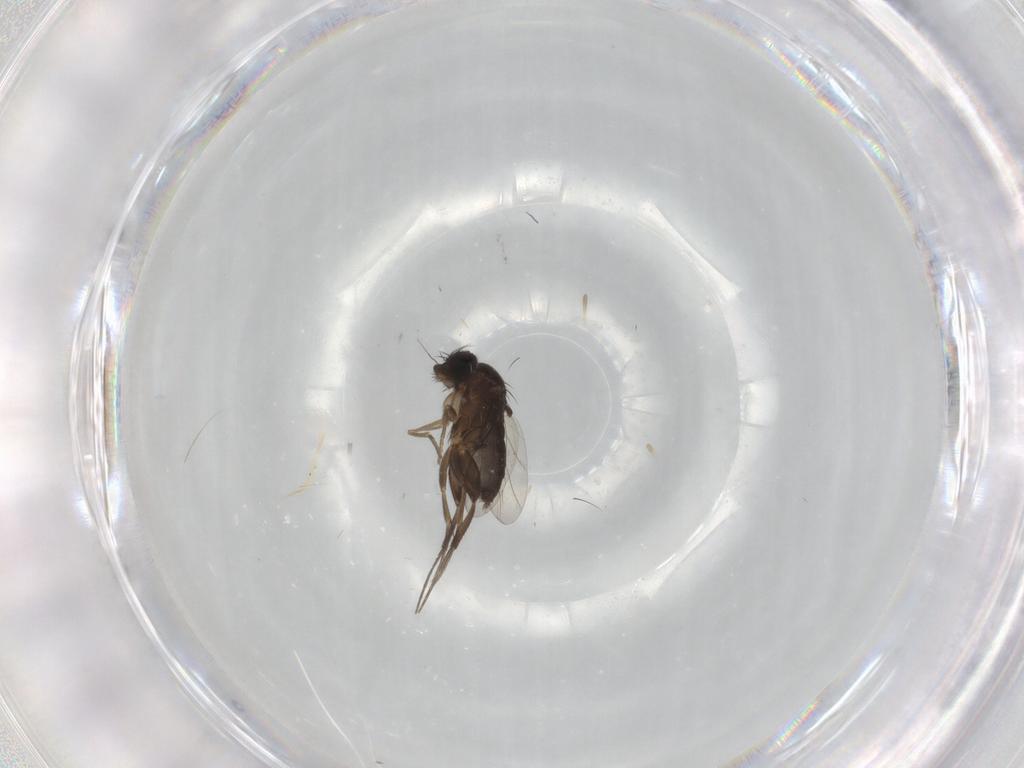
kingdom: Animalia
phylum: Arthropoda
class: Insecta
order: Diptera
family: Phoridae
